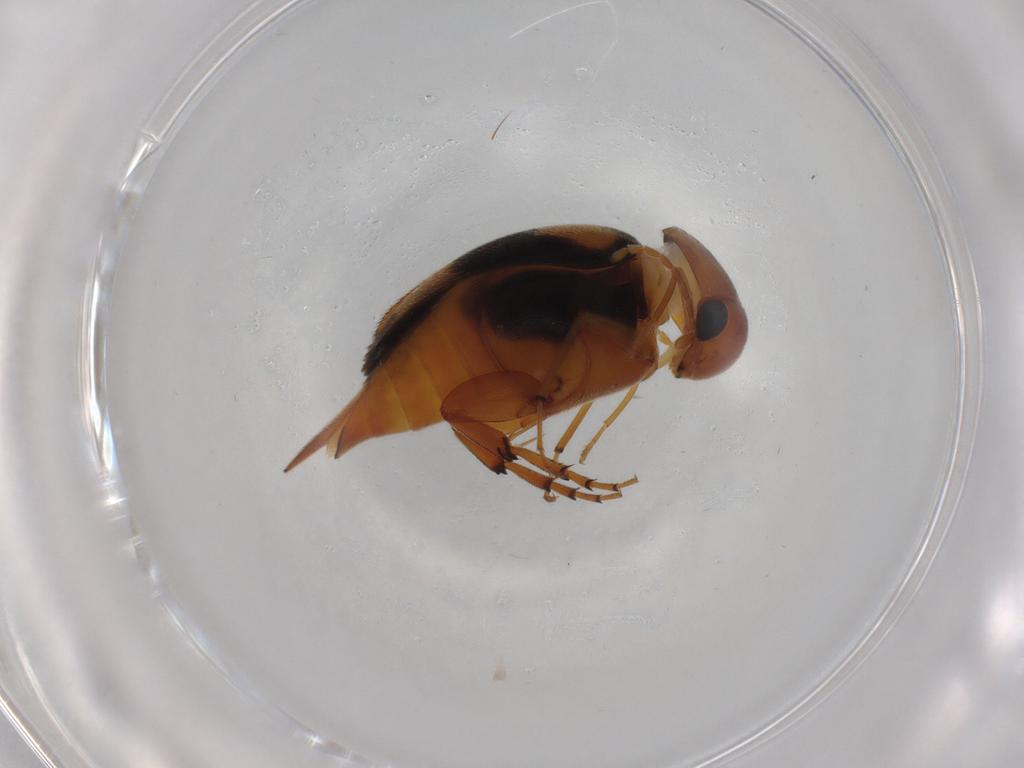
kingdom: Animalia
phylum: Arthropoda
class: Insecta
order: Coleoptera
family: Mordellidae
